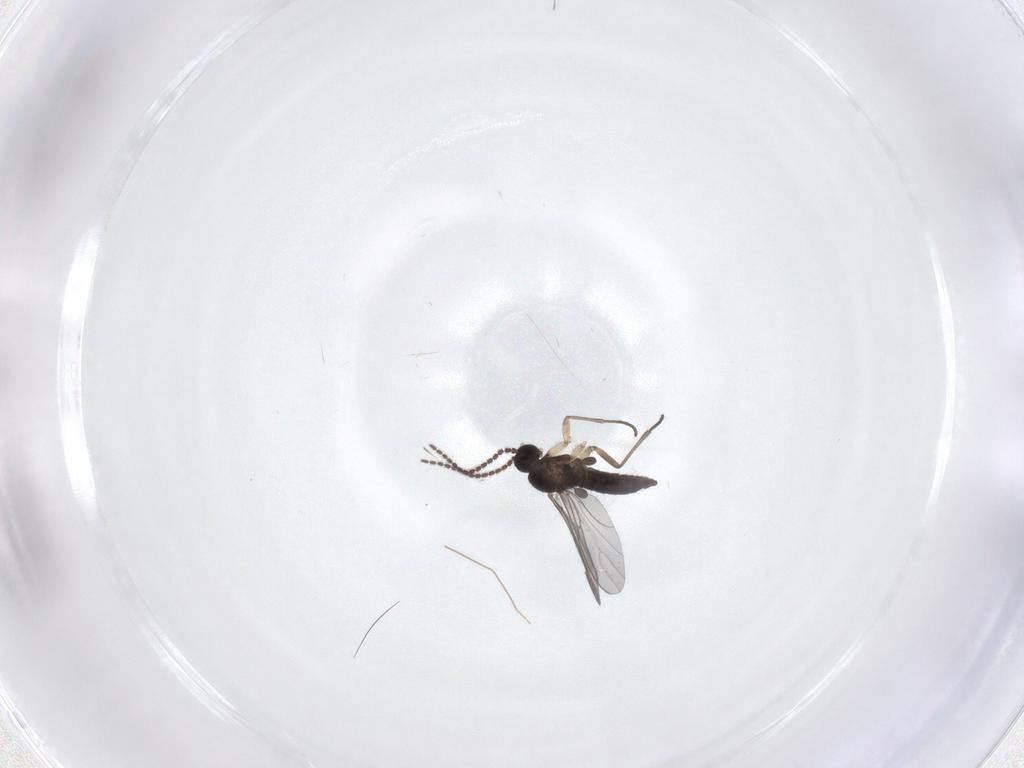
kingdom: Animalia
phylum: Arthropoda
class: Insecta
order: Diptera
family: Sciaridae
